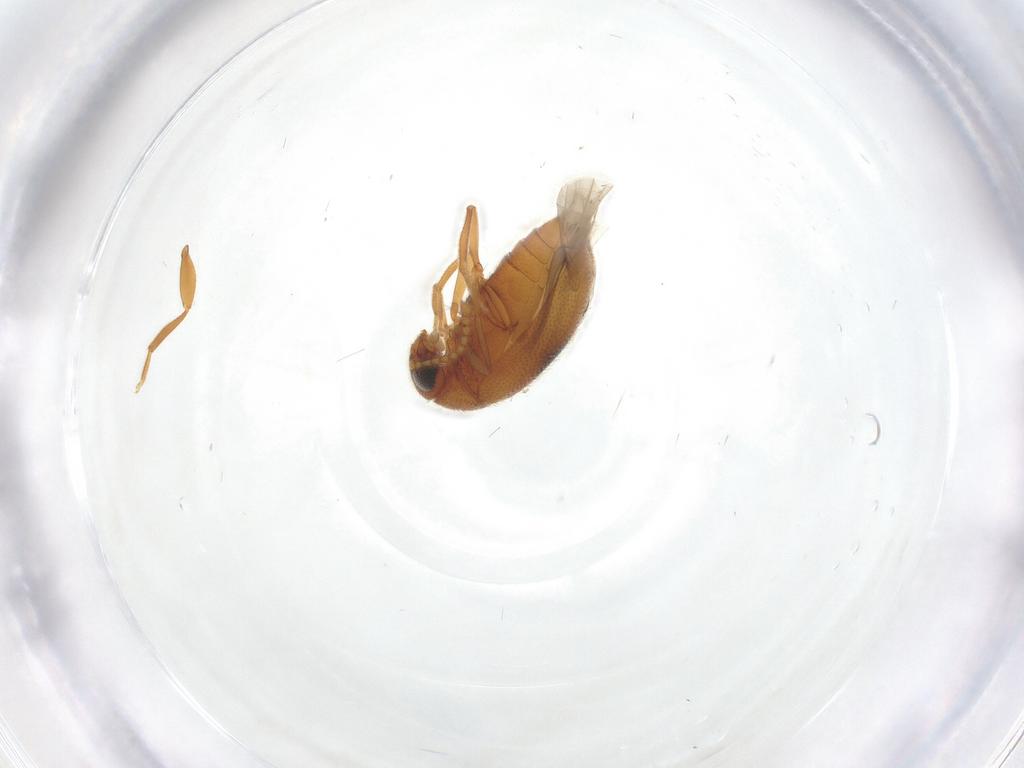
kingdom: Animalia
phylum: Arthropoda
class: Insecta
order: Coleoptera
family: Aderidae
